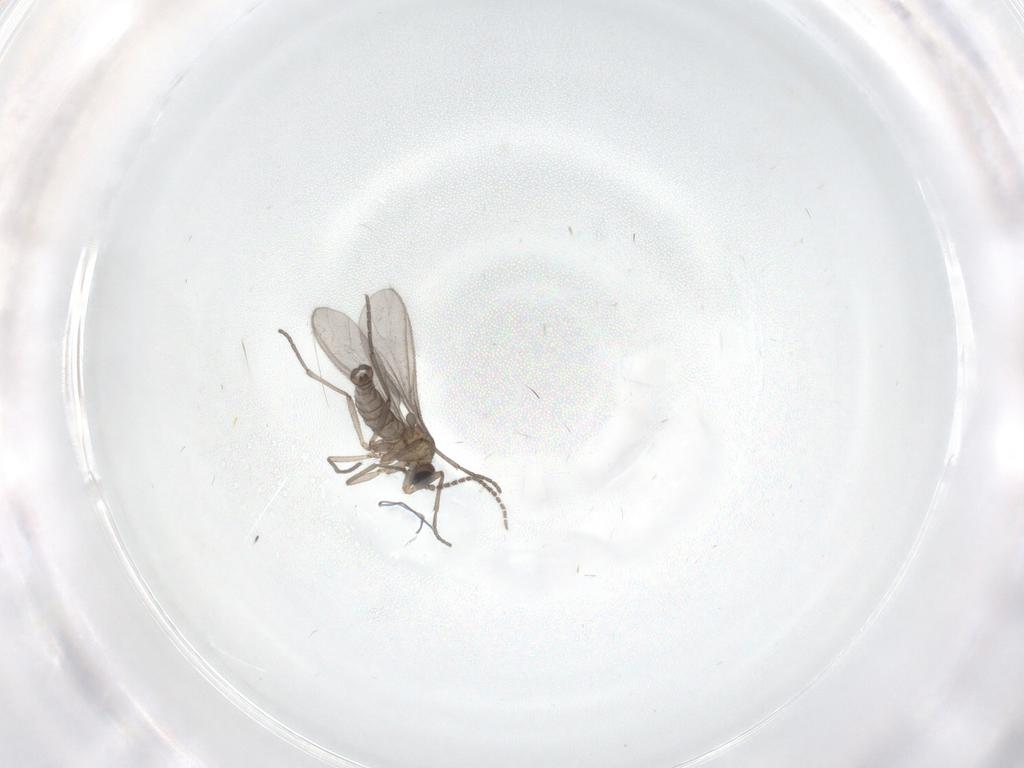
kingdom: Animalia
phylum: Arthropoda
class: Insecta
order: Diptera
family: Sciaridae
